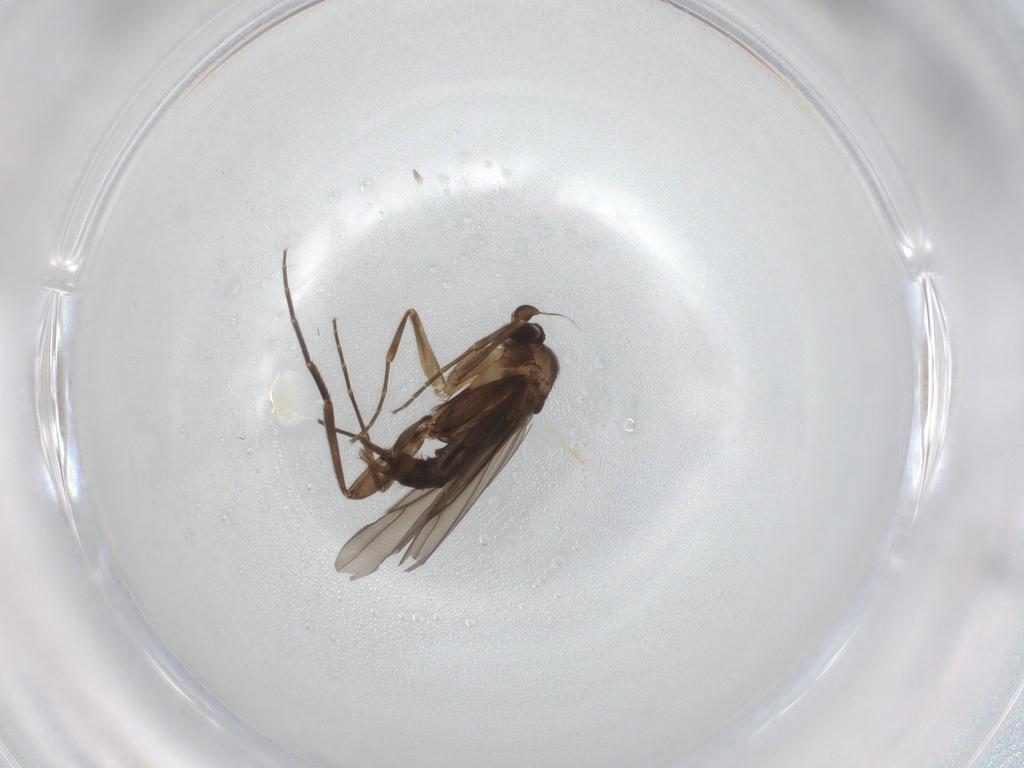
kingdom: Animalia
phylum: Arthropoda
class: Insecta
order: Diptera
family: Phoridae
